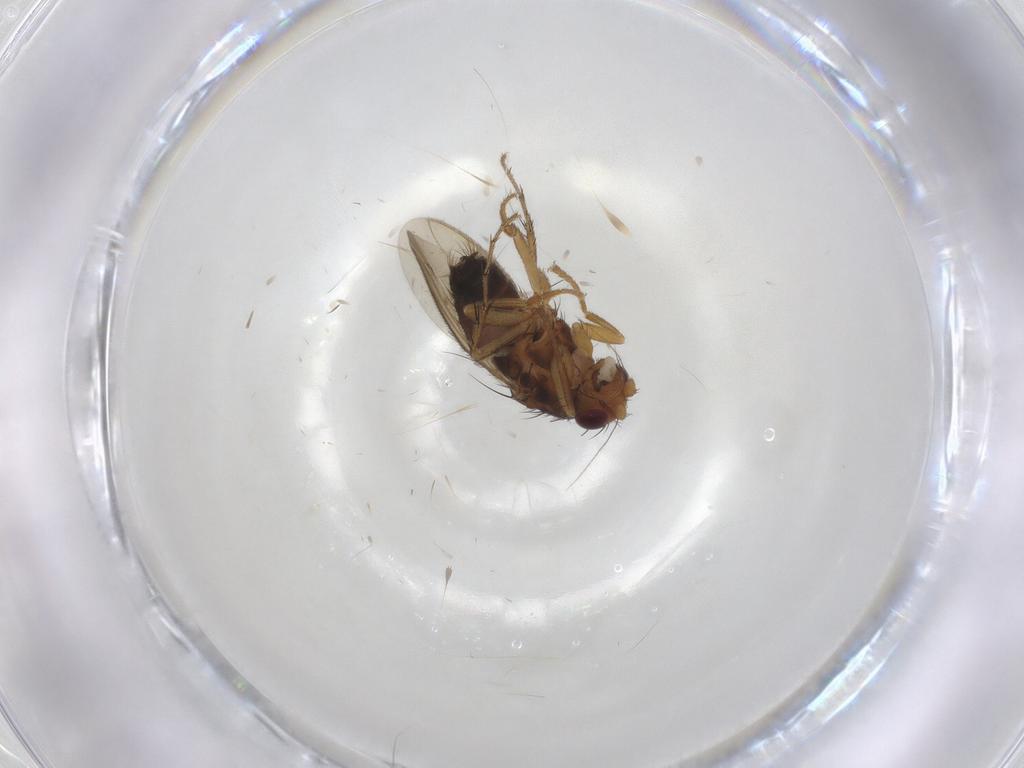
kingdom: Animalia
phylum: Arthropoda
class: Insecta
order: Diptera
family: Sphaeroceridae
